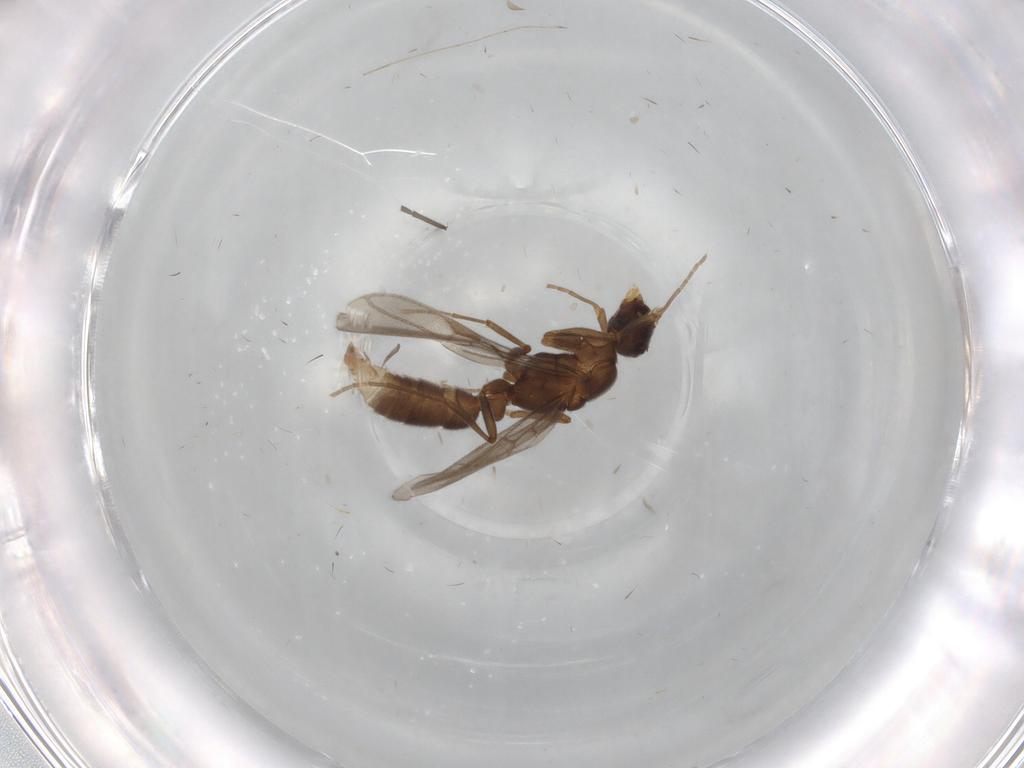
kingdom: Animalia
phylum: Arthropoda
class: Insecta
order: Hymenoptera
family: Formicidae
